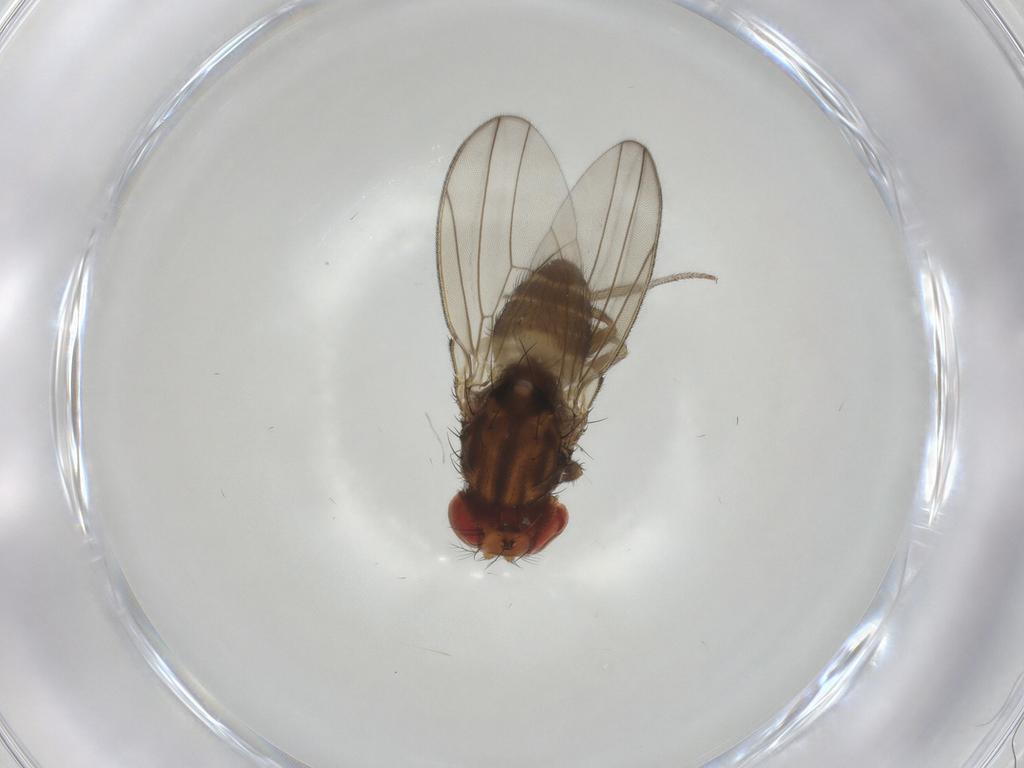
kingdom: Animalia
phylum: Arthropoda
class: Insecta
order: Diptera
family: Drosophilidae
